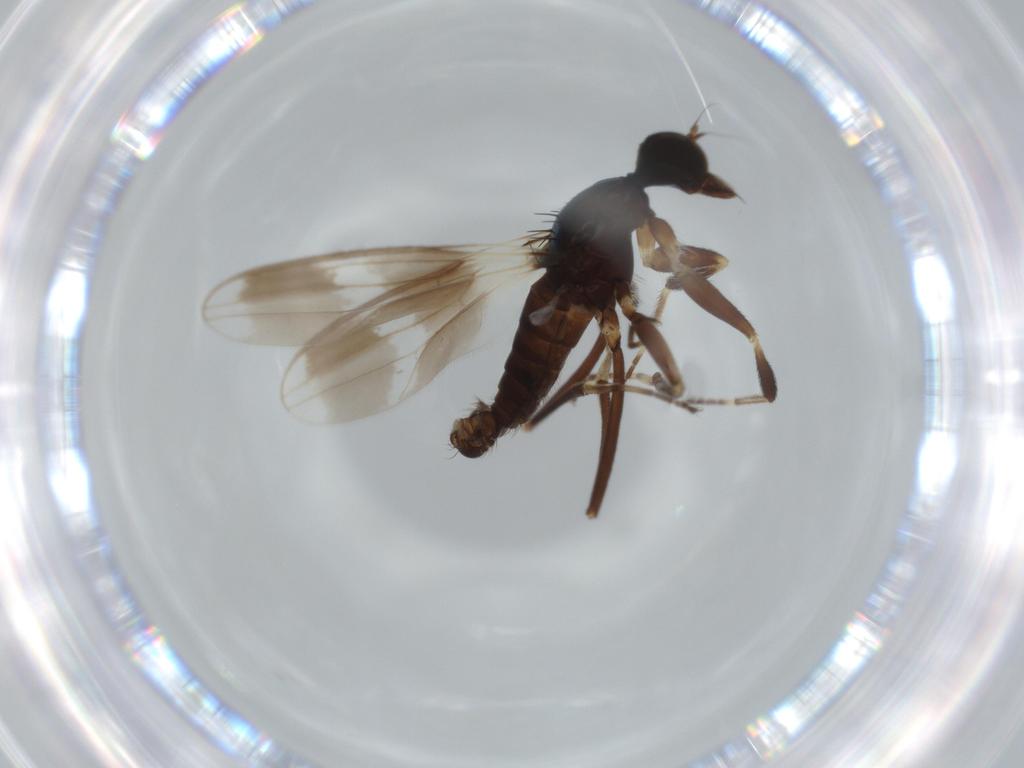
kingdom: Animalia
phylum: Arthropoda
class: Insecta
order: Diptera
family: Hybotidae
